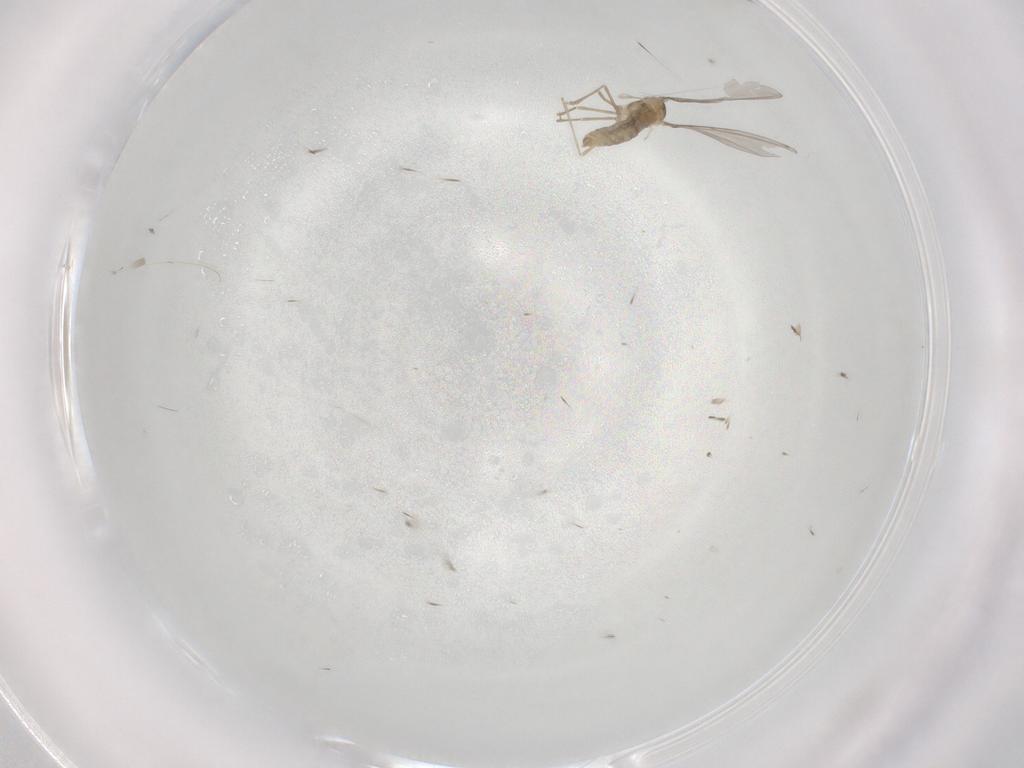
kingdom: Animalia
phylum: Arthropoda
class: Insecta
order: Diptera
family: Cecidomyiidae
